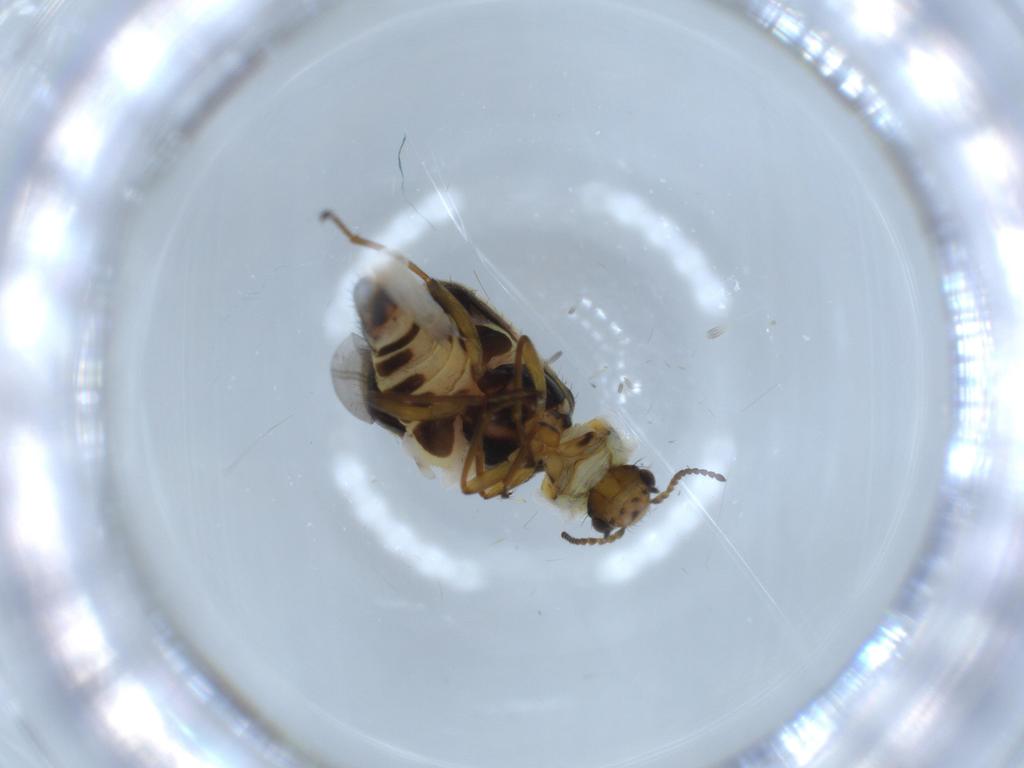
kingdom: Animalia
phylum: Arthropoda
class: Insecta
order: Coleoptera
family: Melyridae
